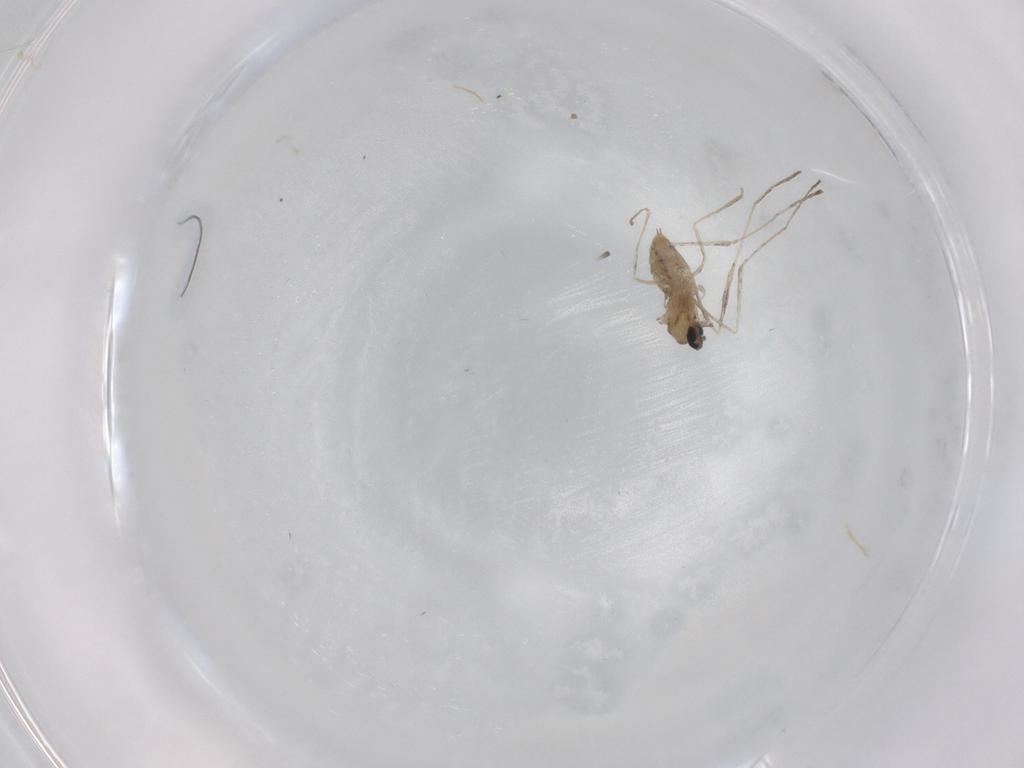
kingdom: Animalia
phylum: Arthropoda
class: Insecta
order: Diptera
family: Cecidomyiidae
